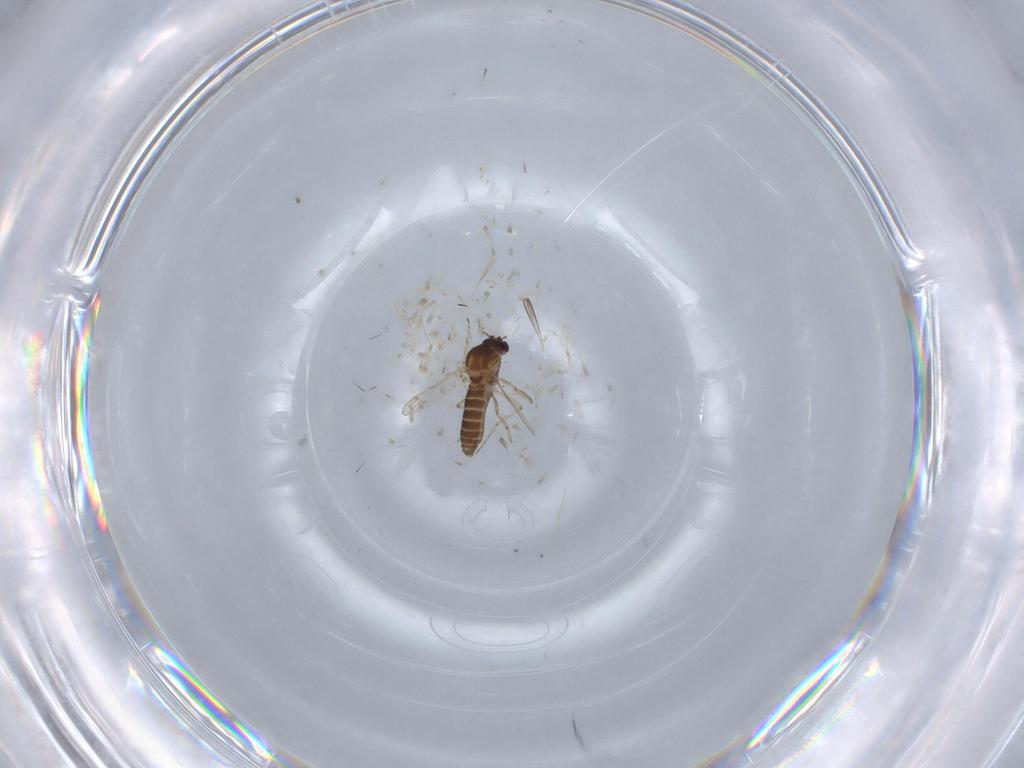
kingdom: Animalia
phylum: Arthropoda
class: Insecta
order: Diptera
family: Ceratopogonidae
